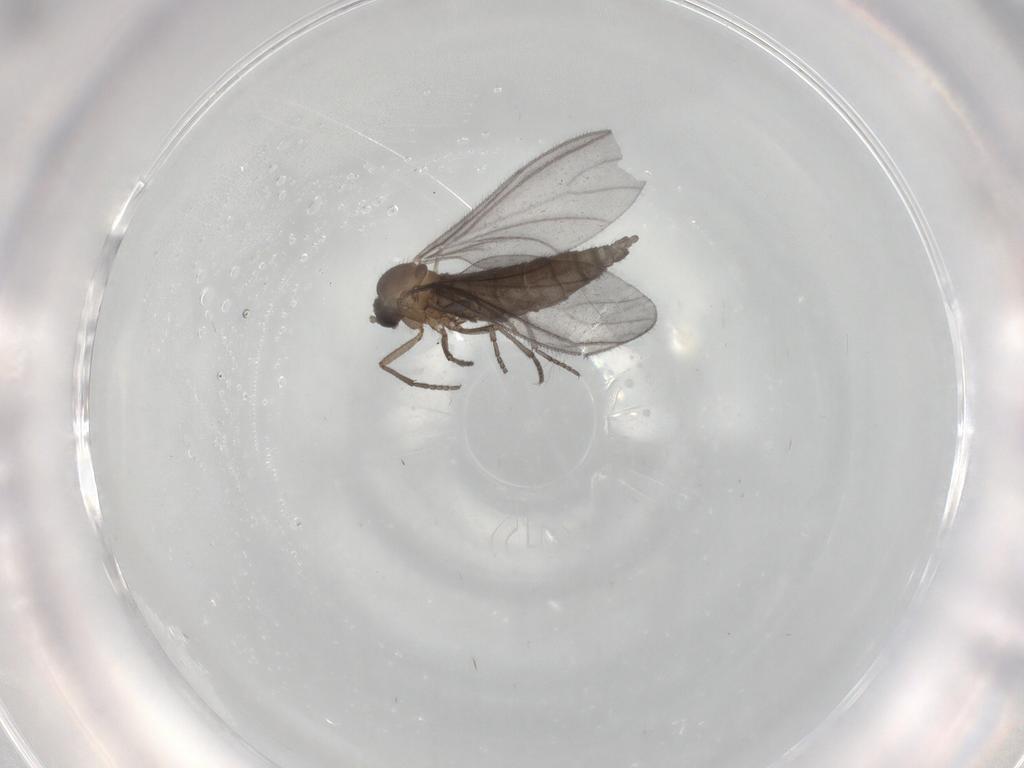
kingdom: Animalia
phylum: Arthropoda
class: Insecta
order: Diptera
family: Sciaridae
